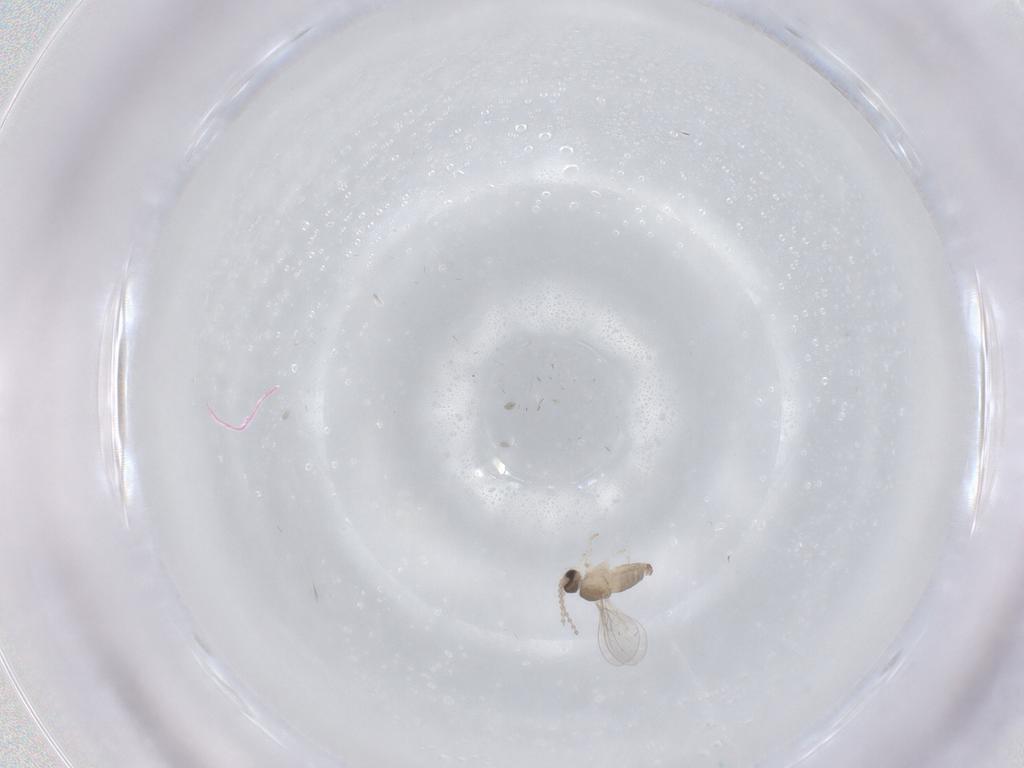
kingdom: Animalia
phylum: Arthropoda
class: Insecta
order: Diptera
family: Cecidomyiidae
